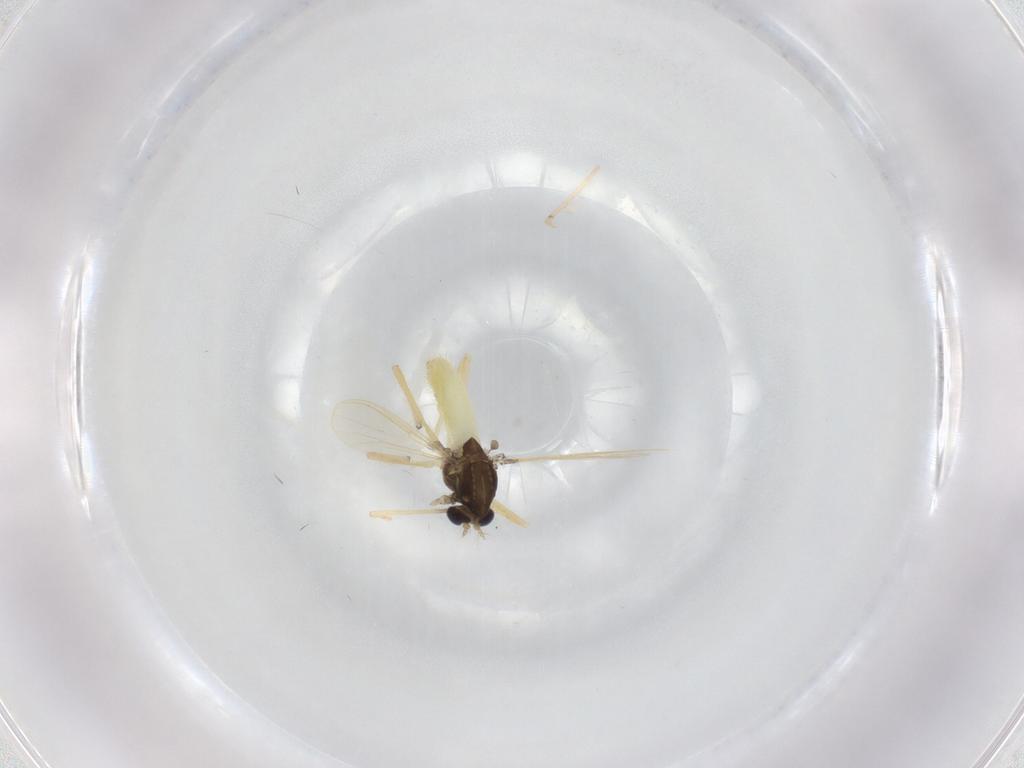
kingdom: Animalia
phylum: Arthropoda
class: Insecta
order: Diptera
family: Chironomidae
